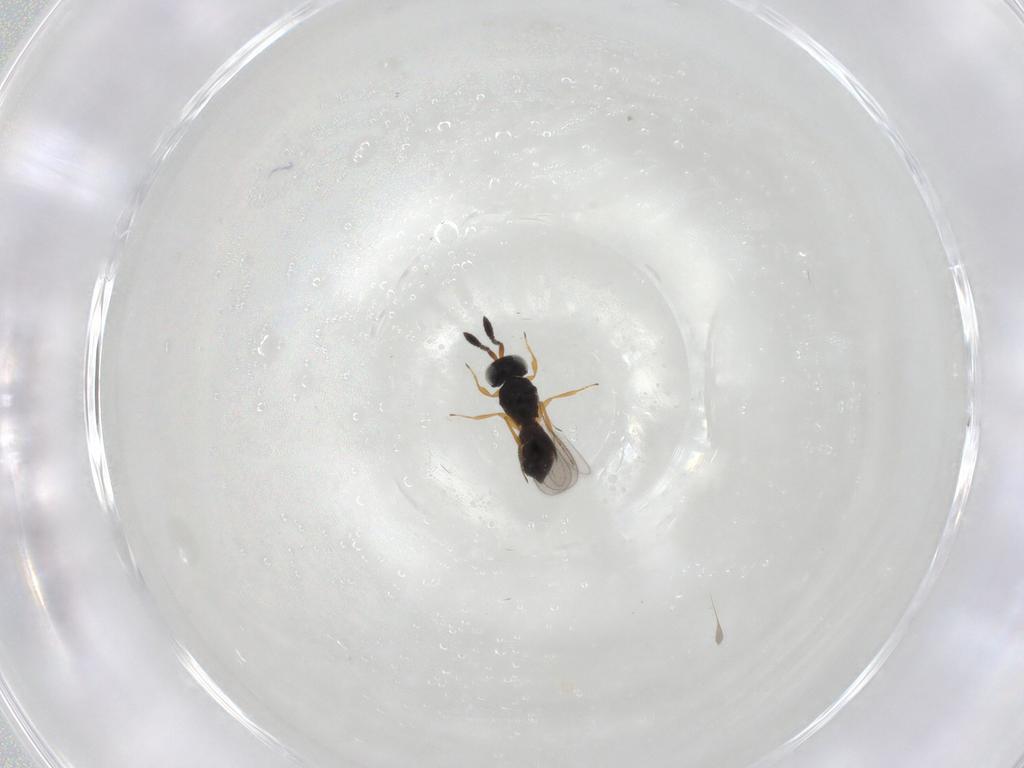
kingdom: Animalia
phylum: Arthropoda
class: Insecta
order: Hymenoptera
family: Scelionidae
